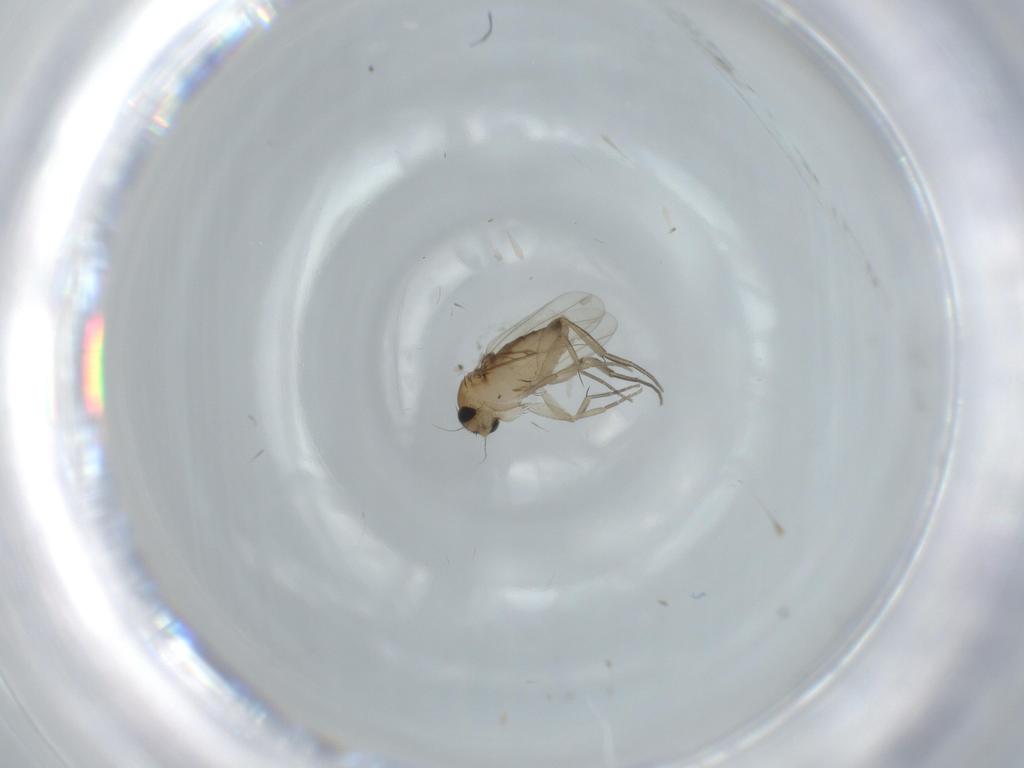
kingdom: Animalia
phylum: Arthropoda
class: Insecta
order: Diptera
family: Phoridae
